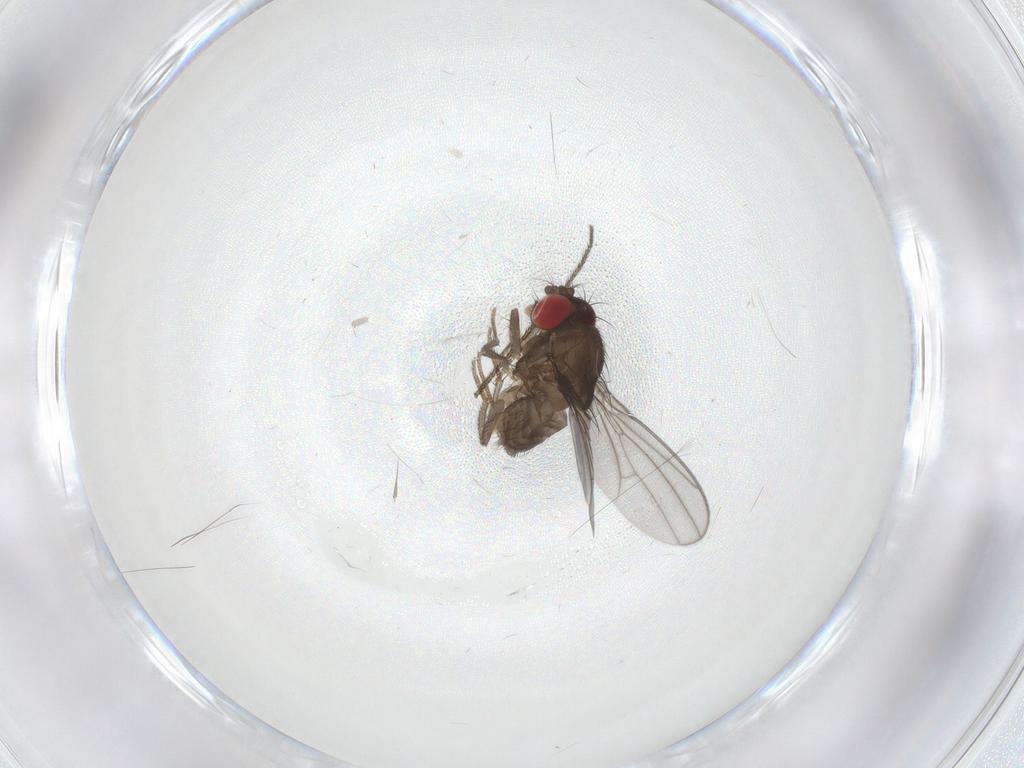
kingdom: Animalia
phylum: Arthropoda
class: Insecta
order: Diptera
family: Drosophilidae
